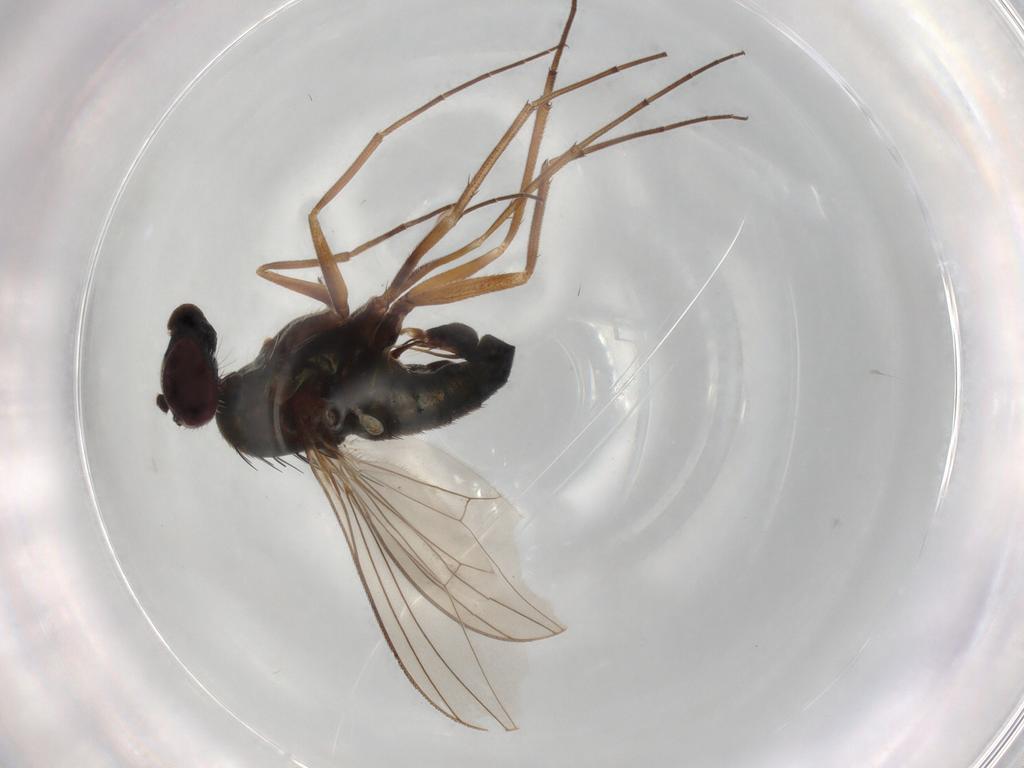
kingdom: Animalia
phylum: Arthropoda
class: Insecta
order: Diptera
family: Dolichopodidae
